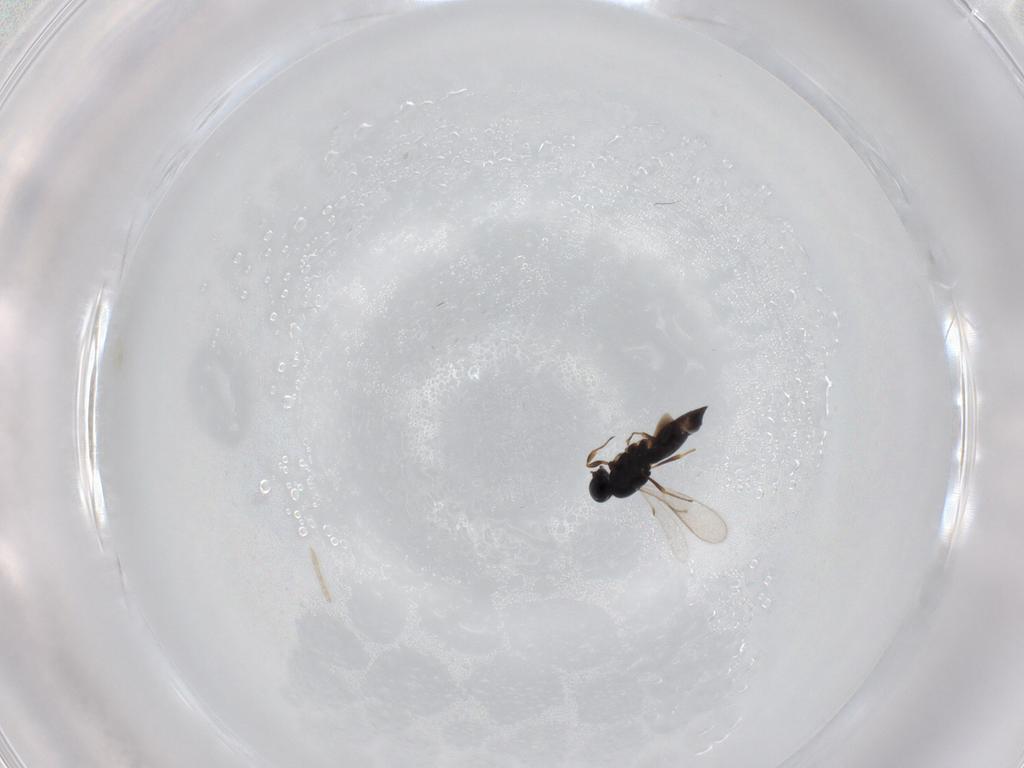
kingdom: Animalia
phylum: Arthropoda
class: Insecta
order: Hymenoptera
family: Scelionidae
